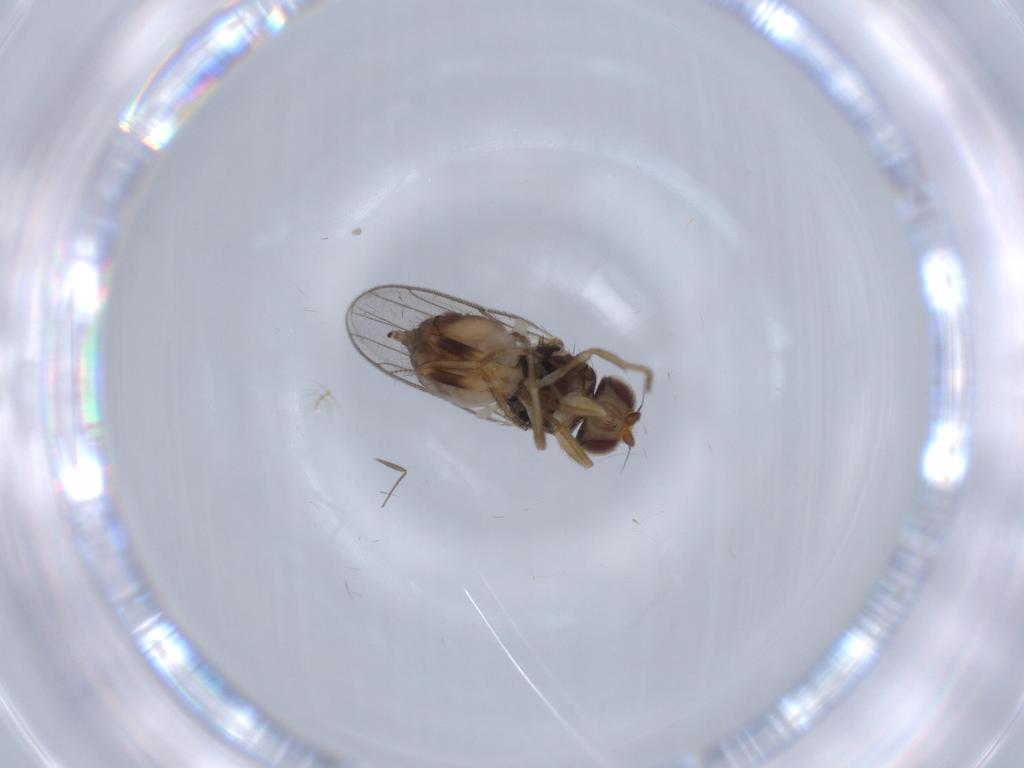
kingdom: Animalia
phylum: Arthropoda
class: Insecta
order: Diptera
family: Chloropidae
